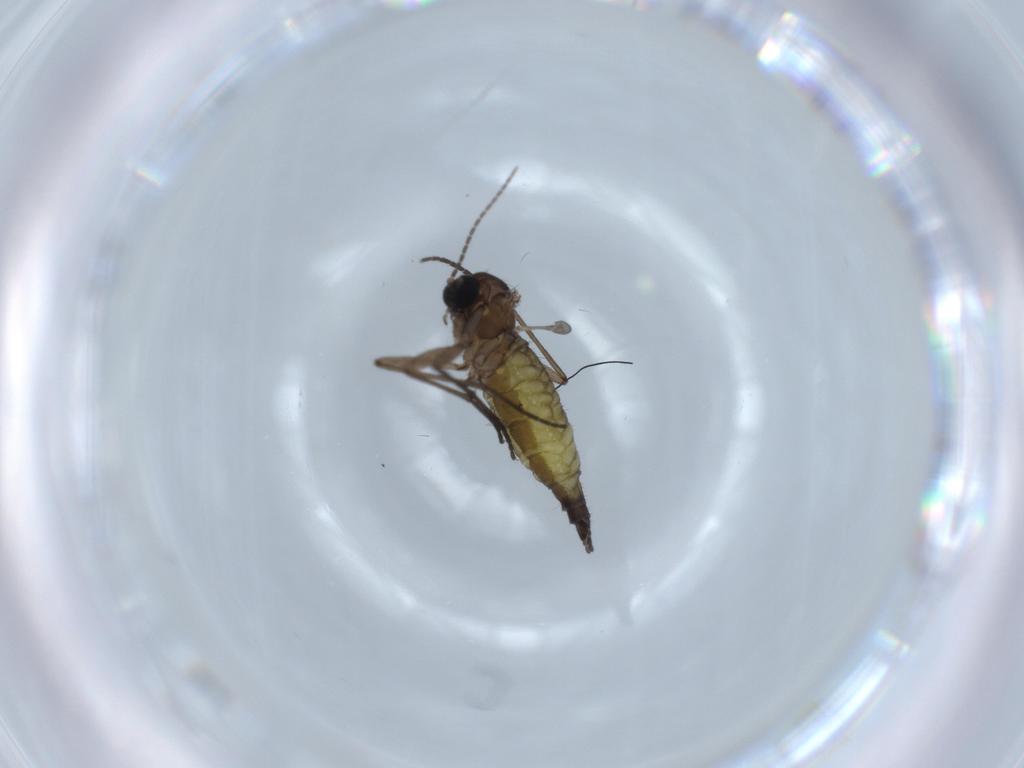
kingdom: Animalia
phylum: Arthropoda
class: Insecta
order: Diptera
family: Sciaridae
